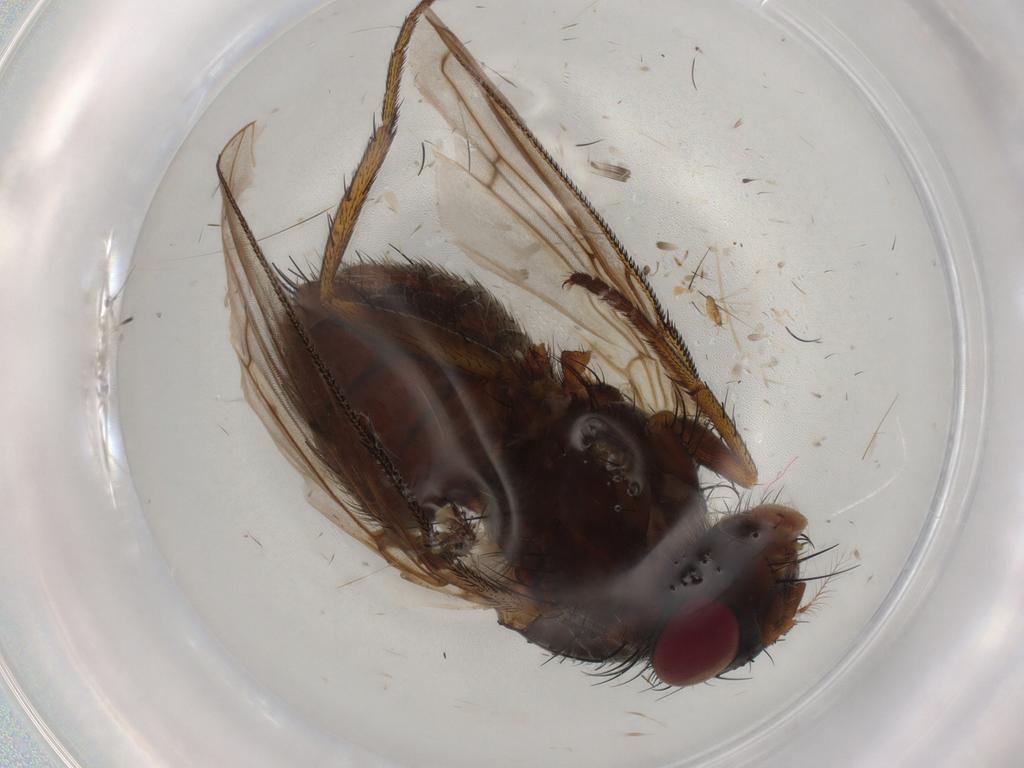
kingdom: Animalia
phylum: Arthropoda
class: Insecta
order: Diptera
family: Tachinidae
